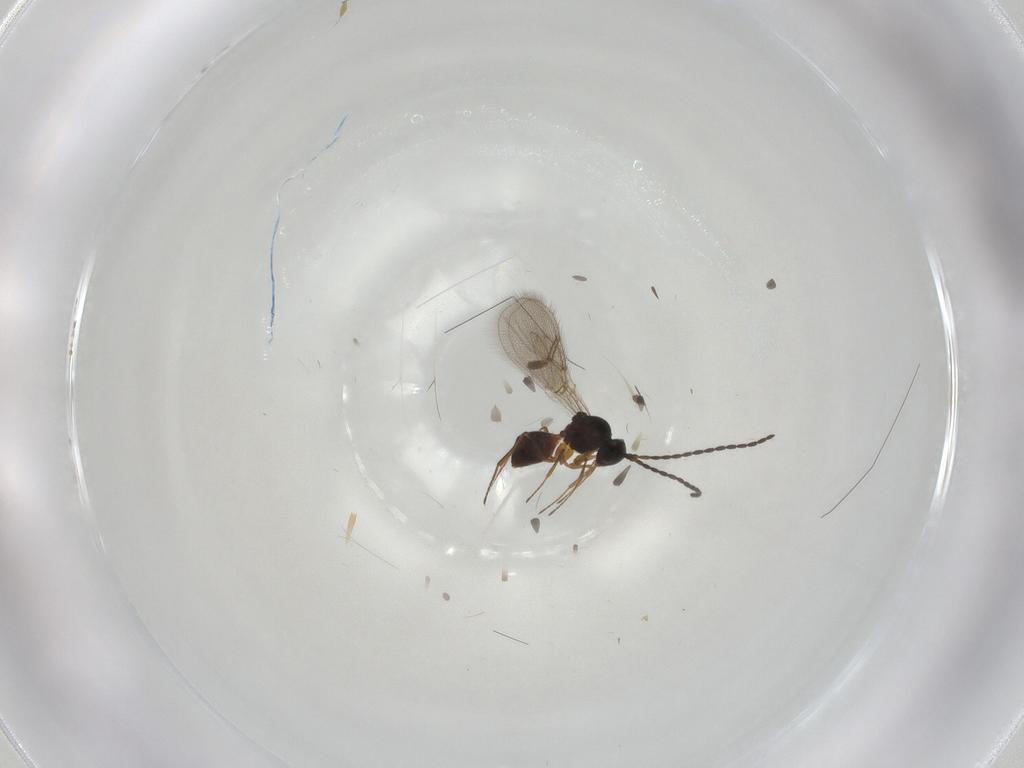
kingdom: Animalia
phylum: Arthropoda
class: Insecta
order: Hymenoptera
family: Figitidae
